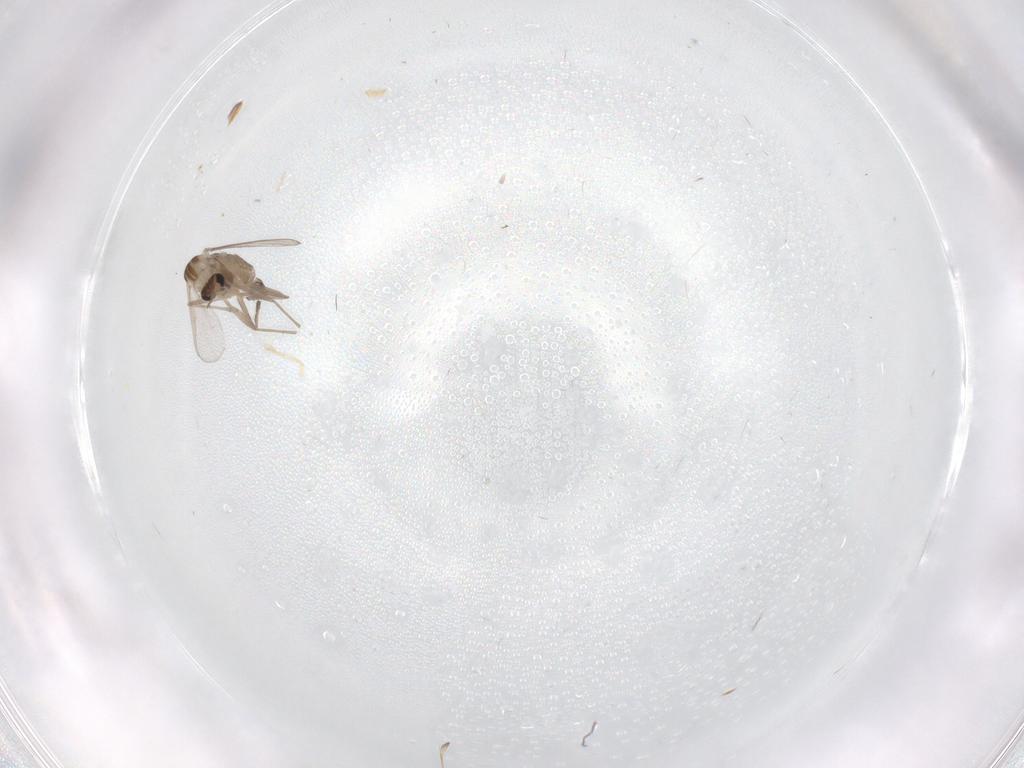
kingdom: Animalia
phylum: Arthropoda
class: Insecta
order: Diptera
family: Chironomidae
